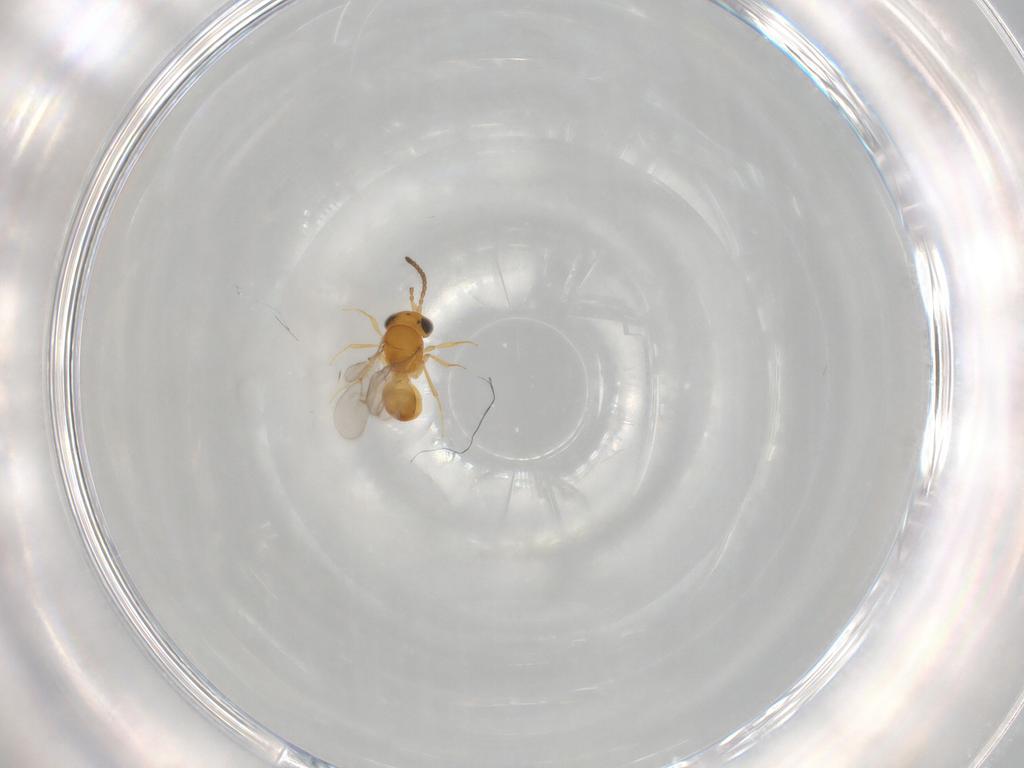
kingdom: Animalia
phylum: Arthropoda
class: Insecta
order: Hymenoptera
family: Scelionidae
